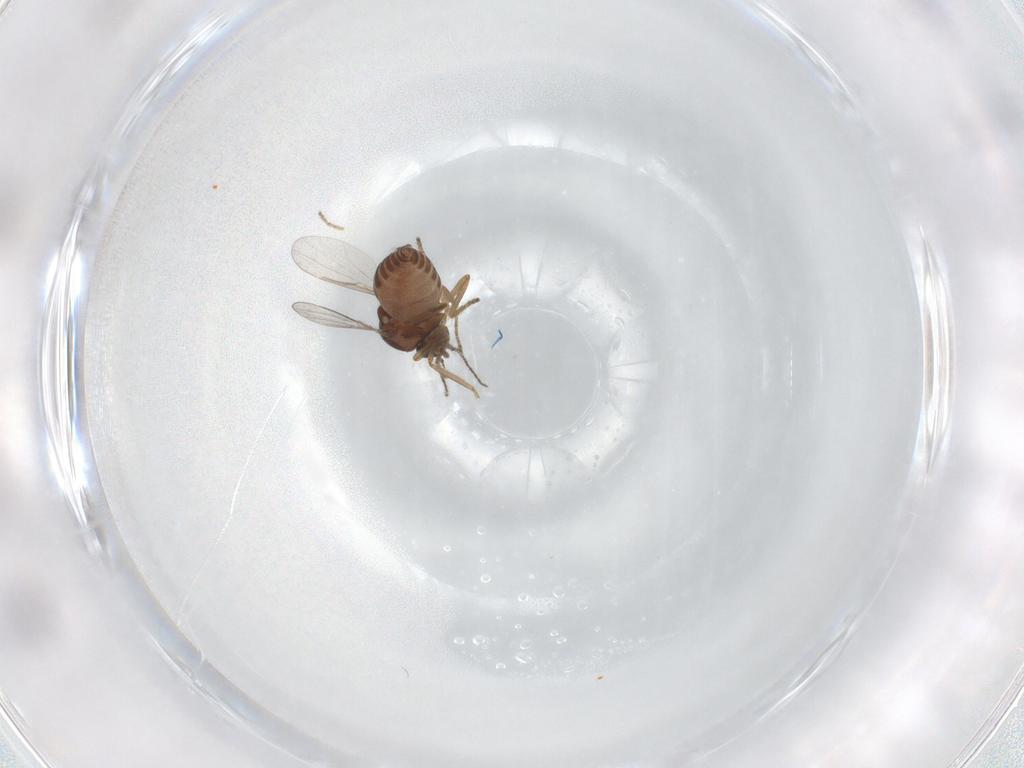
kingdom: Animalia
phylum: Arthropoda
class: Insecta
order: Diptera
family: Ceratopogonidae
